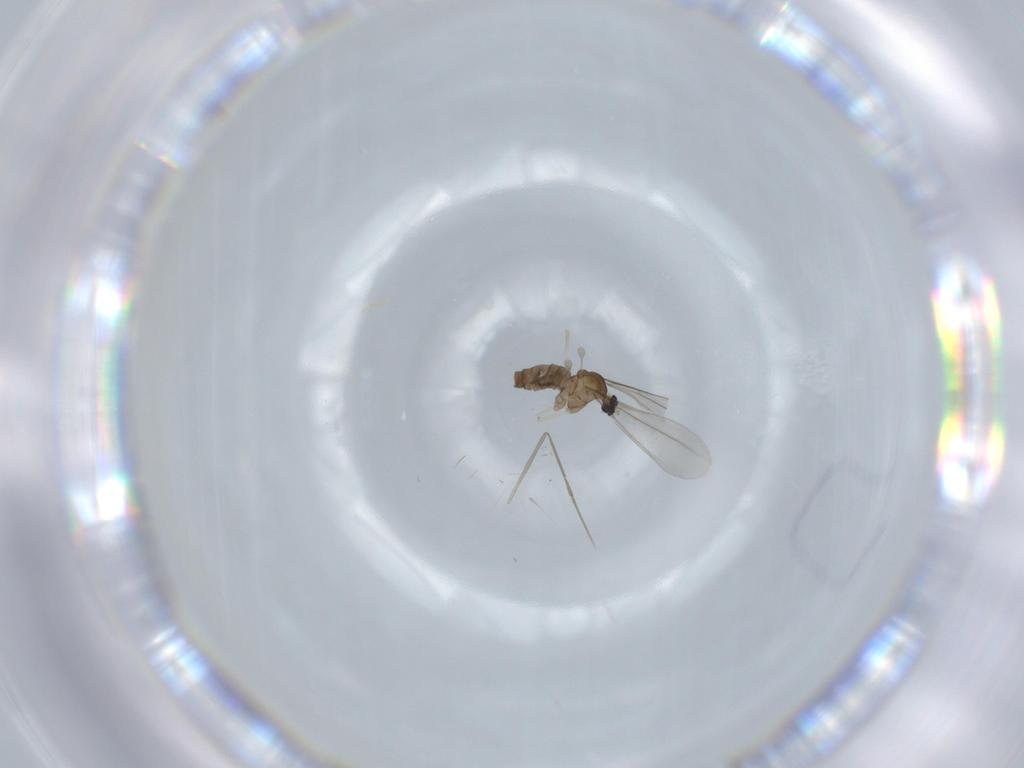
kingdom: Animalia
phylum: Arthropoda
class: Insecta
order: Diptera
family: Cecidomyiidae
